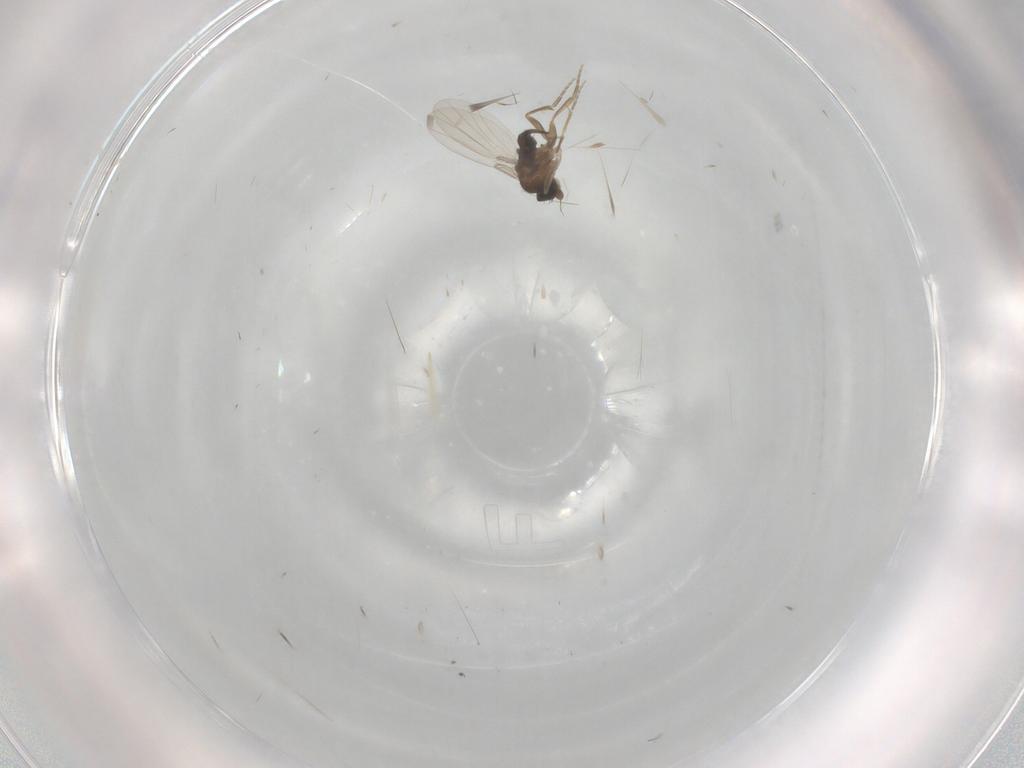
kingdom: Animalia
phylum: Arthropoda
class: Insecta
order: Diptera
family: Phoridae
